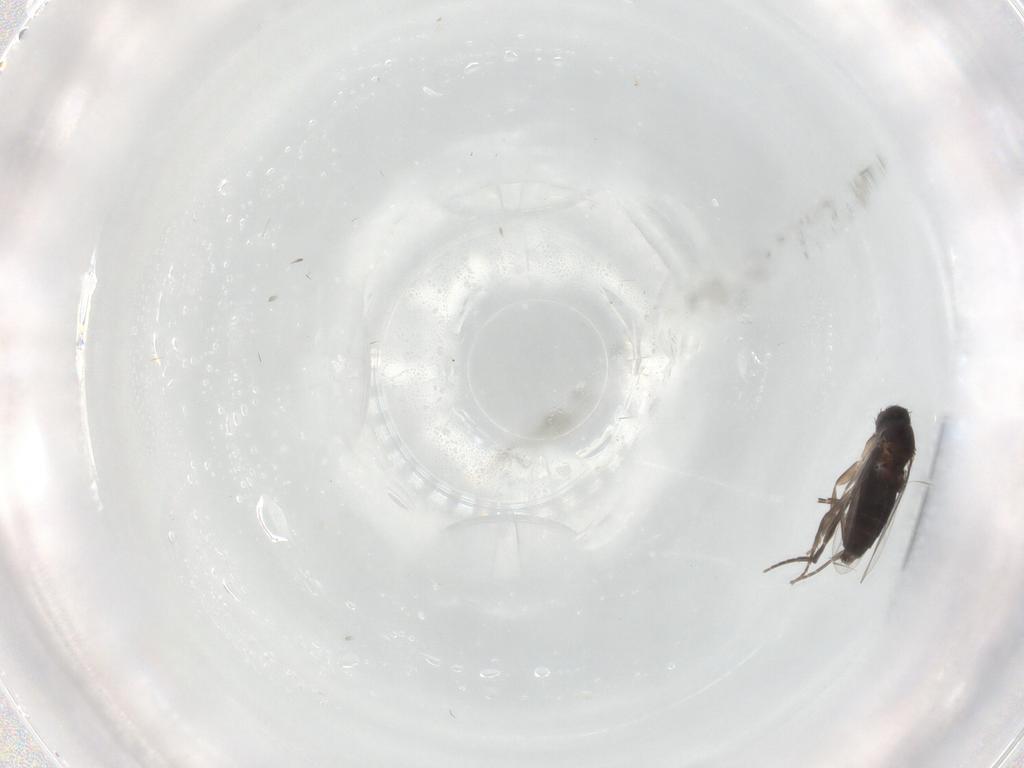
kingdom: Animalia
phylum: Arthropoda
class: Insecta
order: Diptera
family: Phoridae
